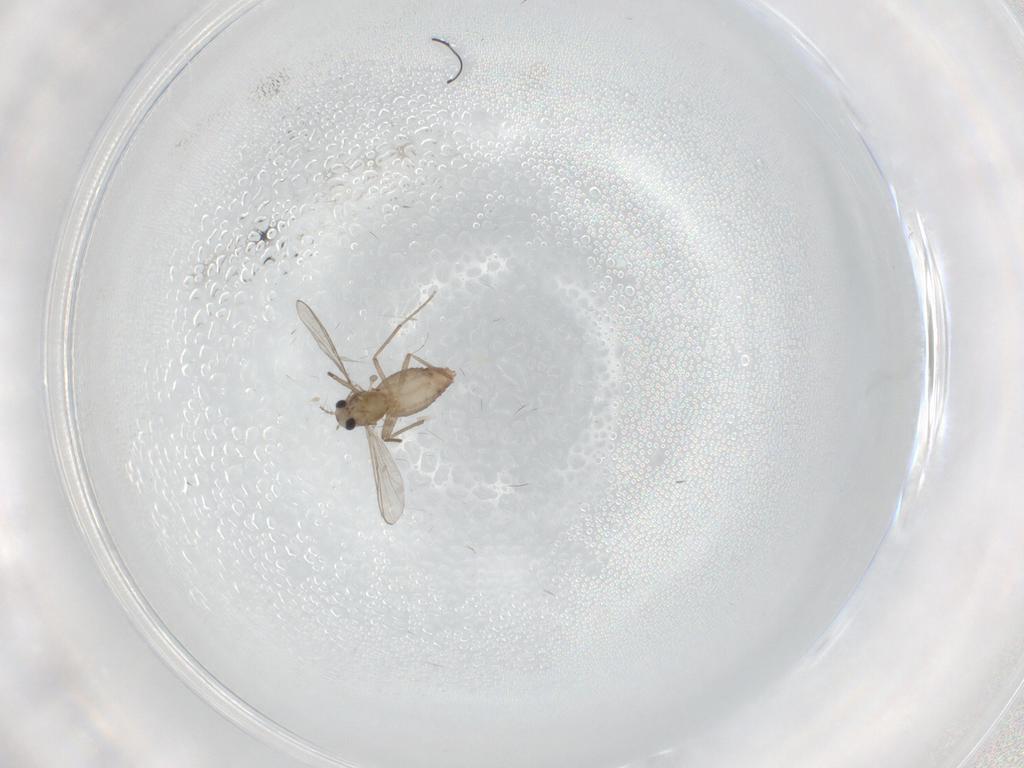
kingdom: Animalia
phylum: Arthropoda
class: Insecta
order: Diptera
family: Chironomidae
